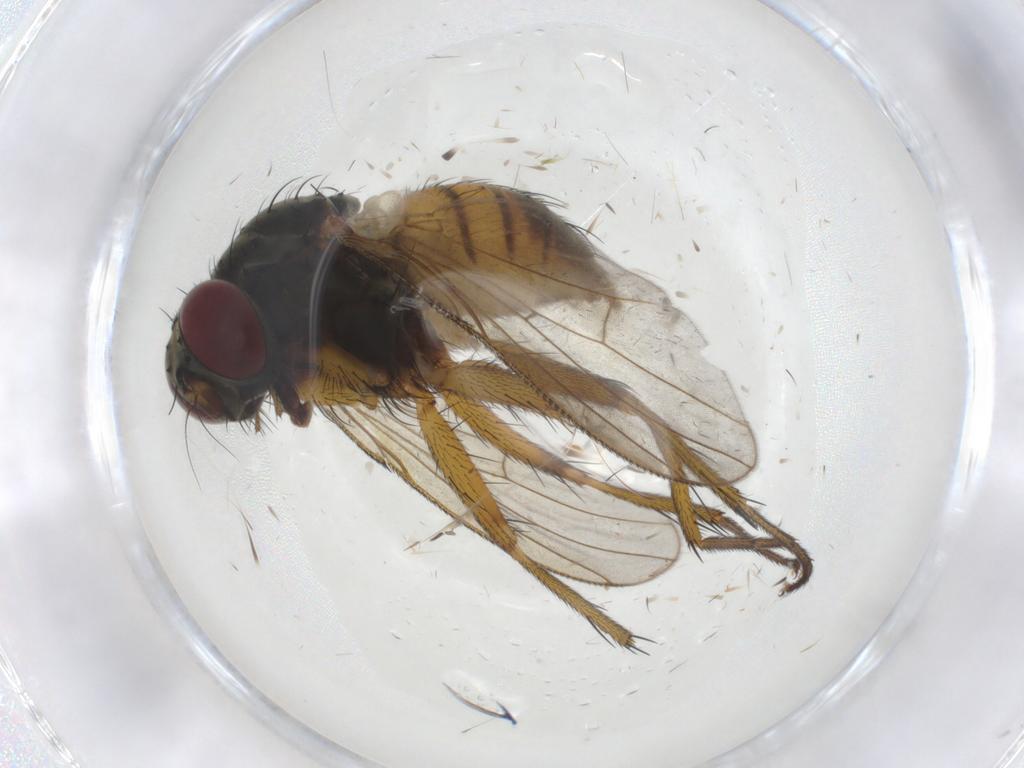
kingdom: Animalia
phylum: Arthropoda
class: Insecta
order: Diptera
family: Muscidae
